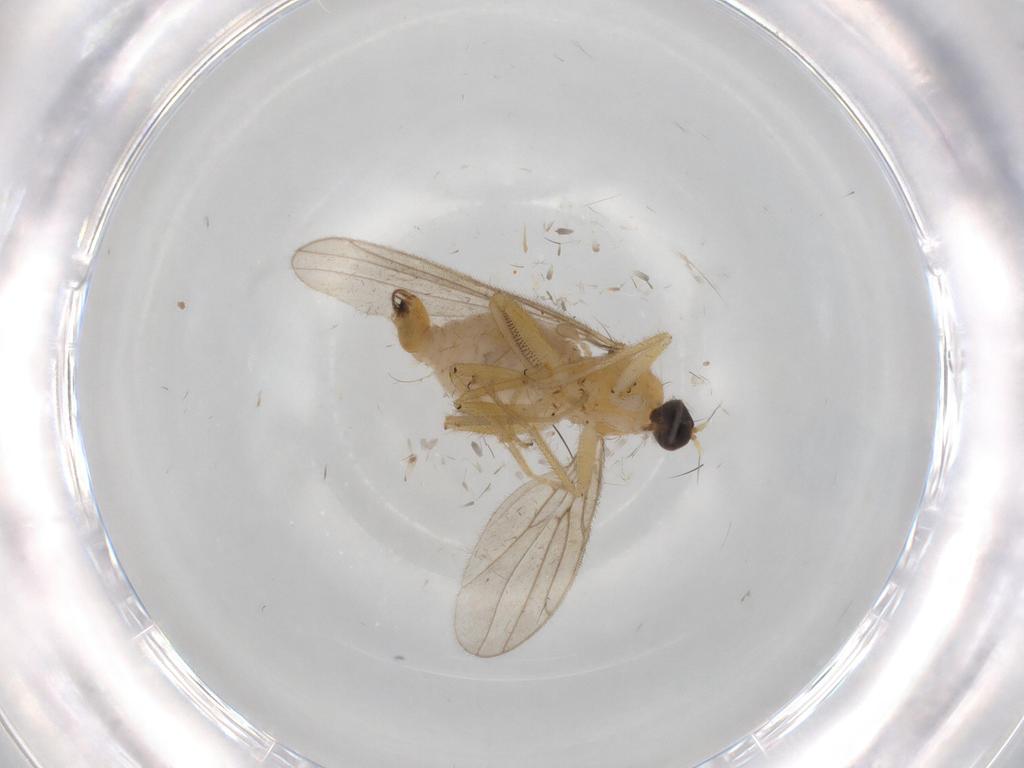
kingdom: Animalia
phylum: Arthropoda
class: Insecta
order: Diptera
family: Hybotidae
